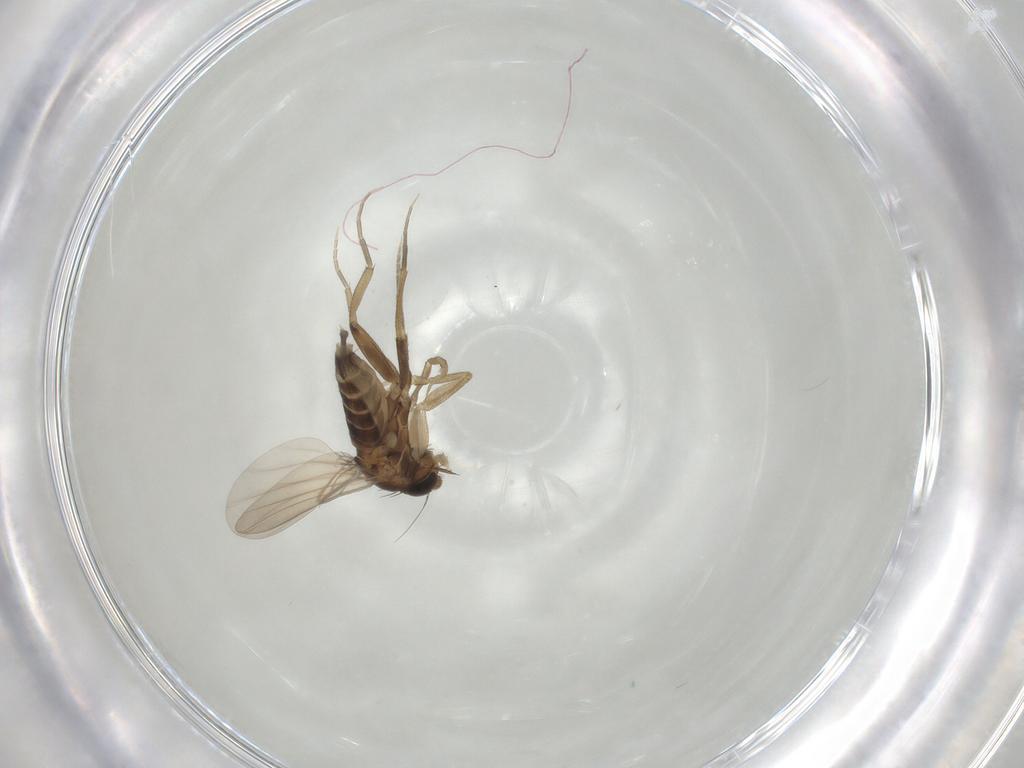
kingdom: Animalia
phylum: Arthropoda
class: Insecta
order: Diptera
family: Phoridae
